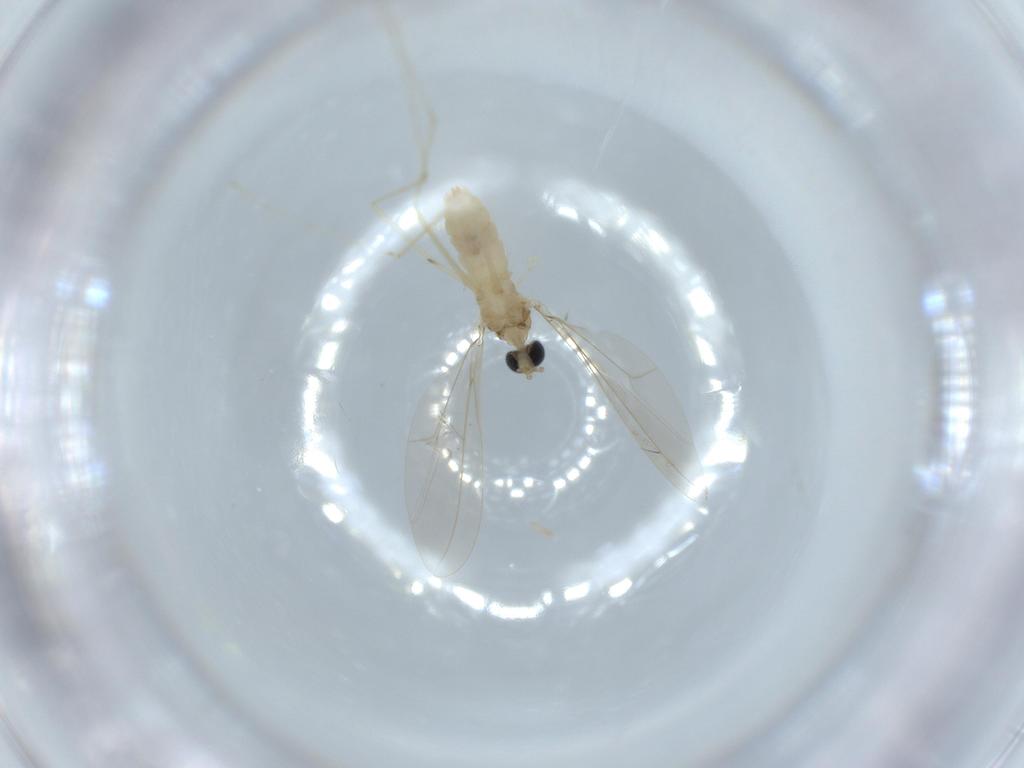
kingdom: Animalia
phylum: Arthropoda
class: Insecta
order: Diptera
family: Cecidomyiidae
